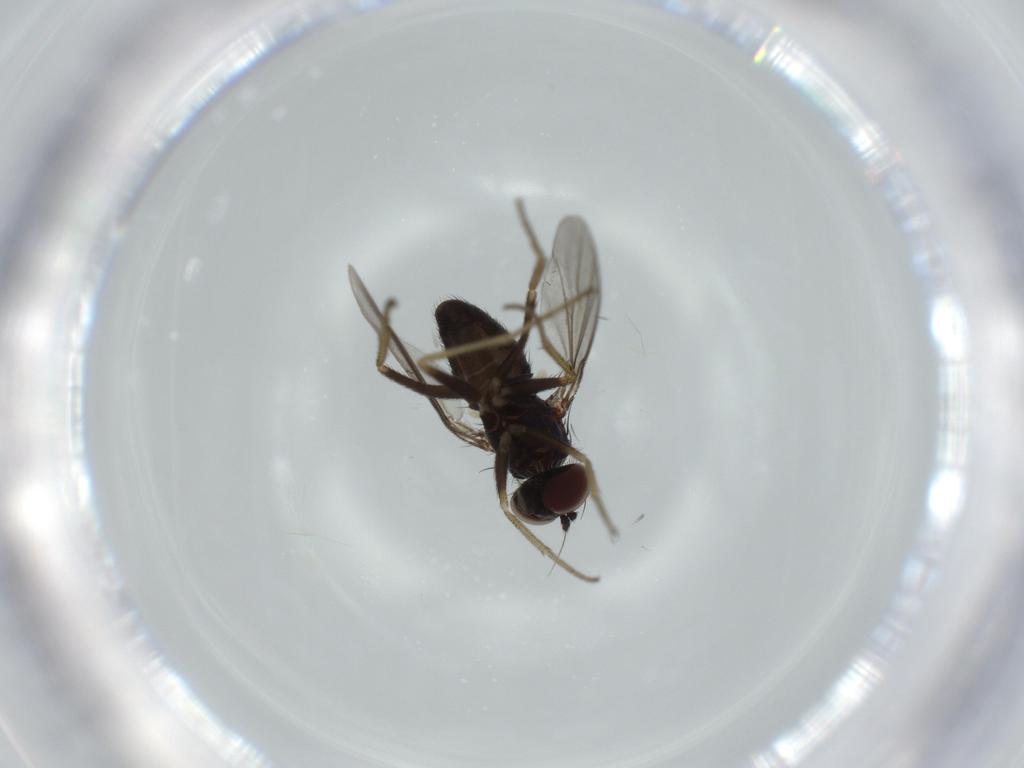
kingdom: Animalia
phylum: Arthropoda
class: Insecta
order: Diptera
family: Dolichopodidae
